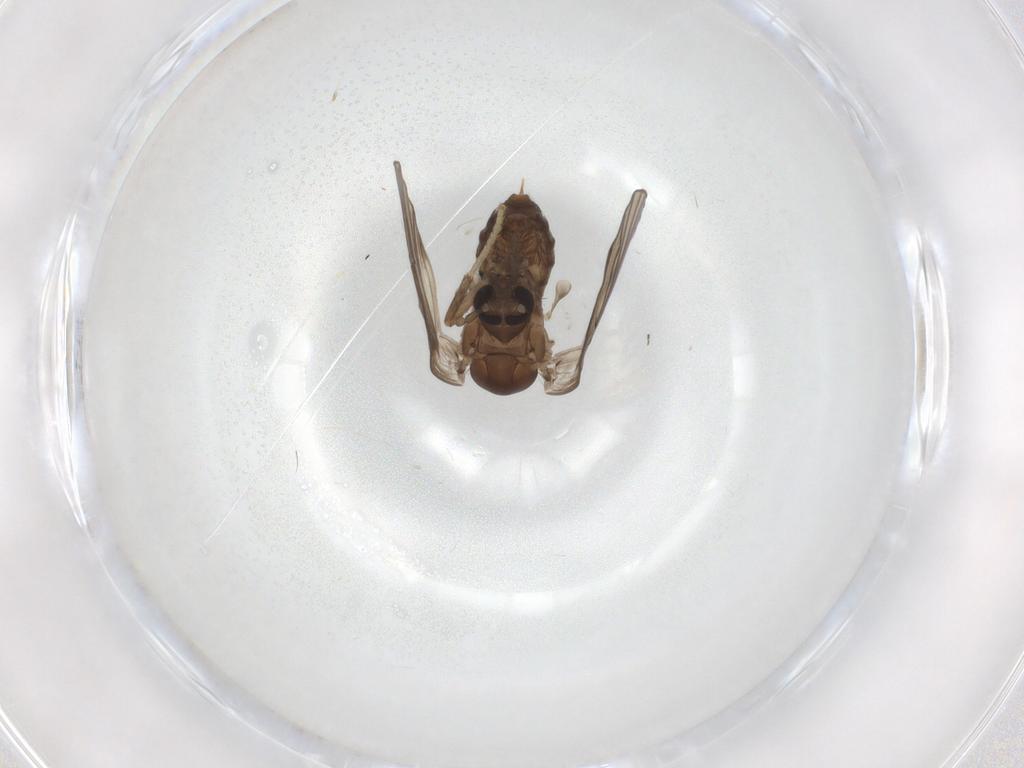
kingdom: Animalia
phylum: Arthropoda
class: Insecta
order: Diptera
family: Psychodidae
